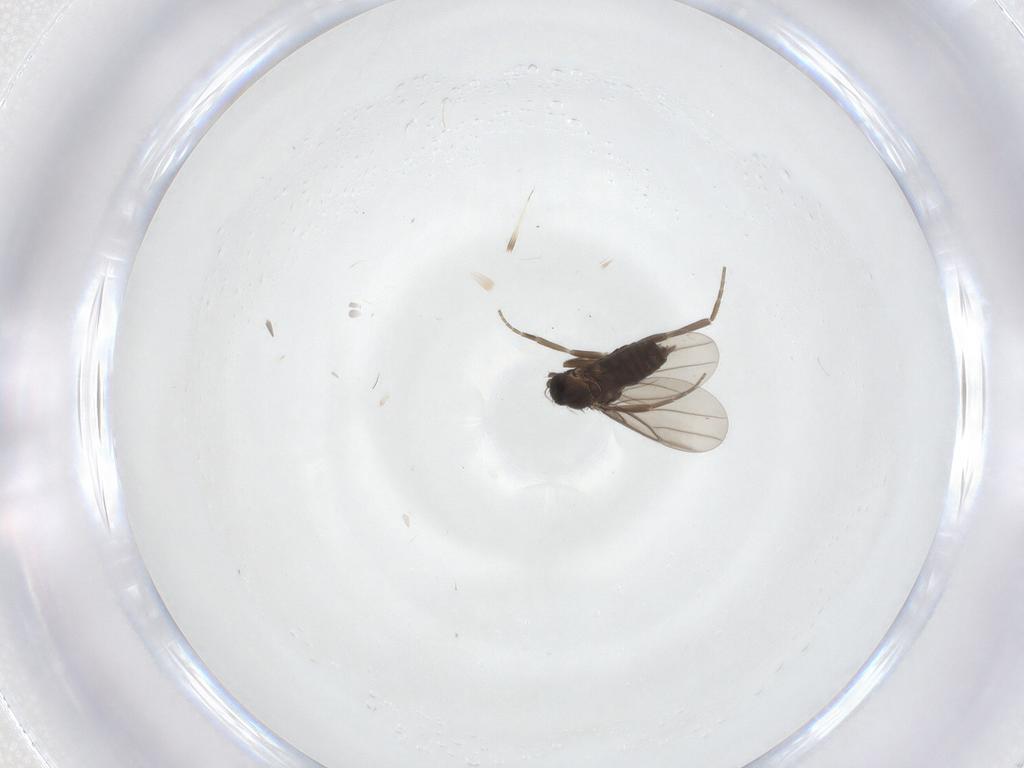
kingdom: Animalia
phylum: Arthropoda
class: Insecta
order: Diptera
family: Phoridae
